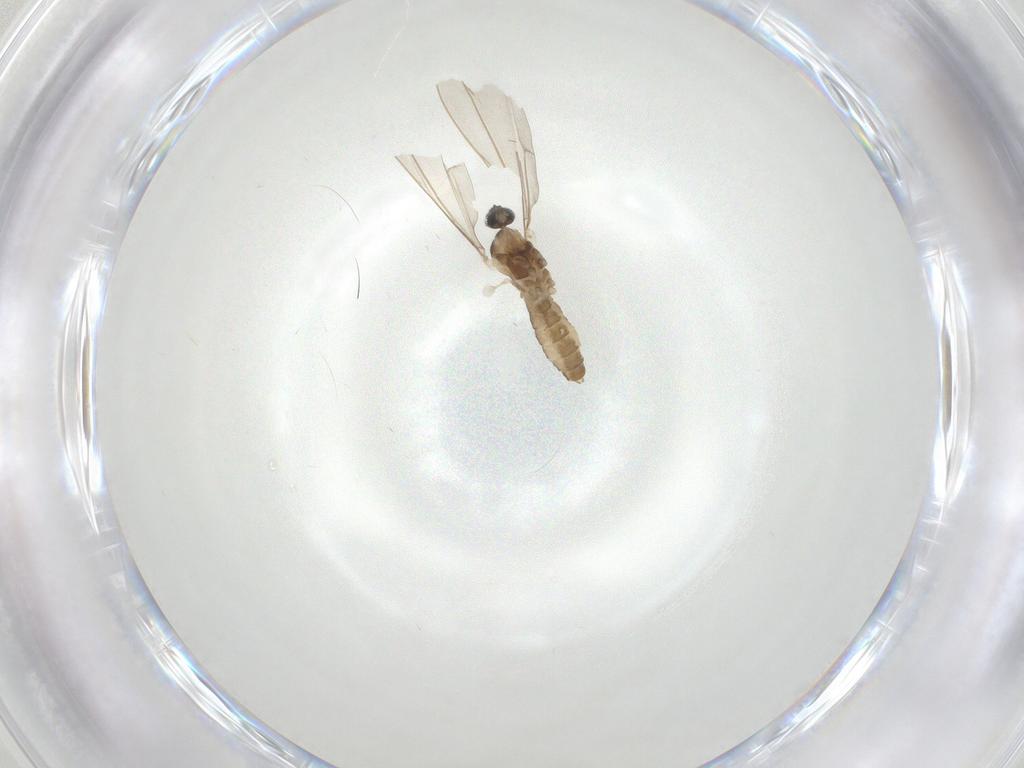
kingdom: Animalia
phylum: Arthropoda
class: Insecta
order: Diptera
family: Cecidomyiidae
